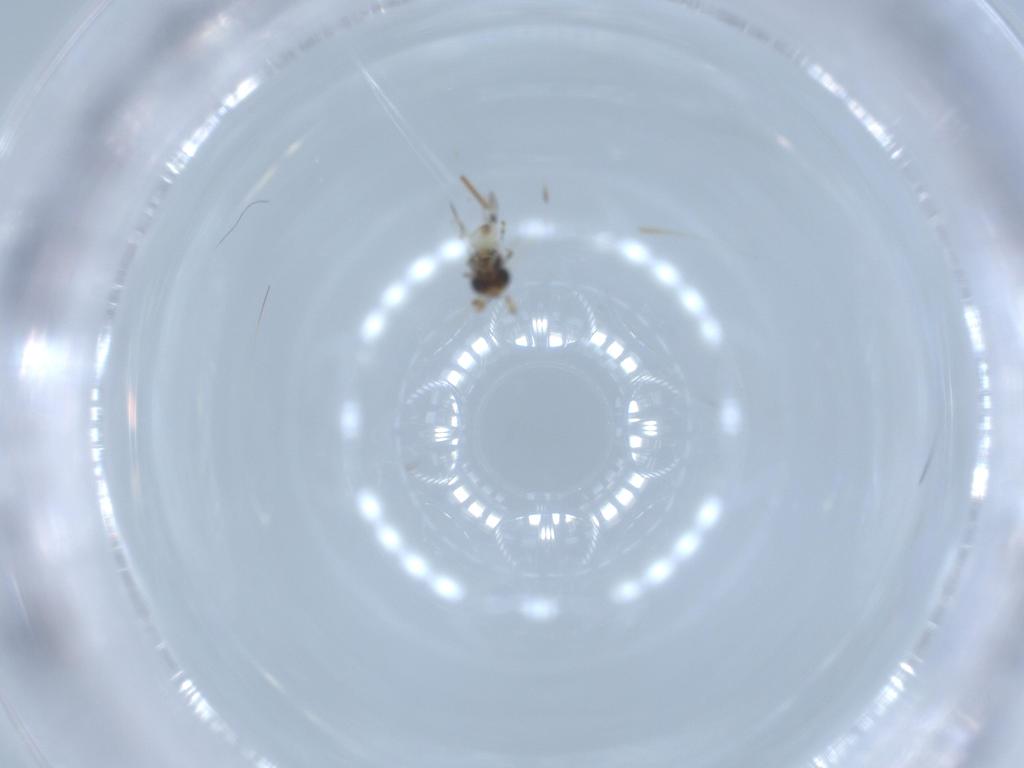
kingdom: Animalia
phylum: Arthropoda
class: Insecta
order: Hymenoptera
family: Scelionidae
